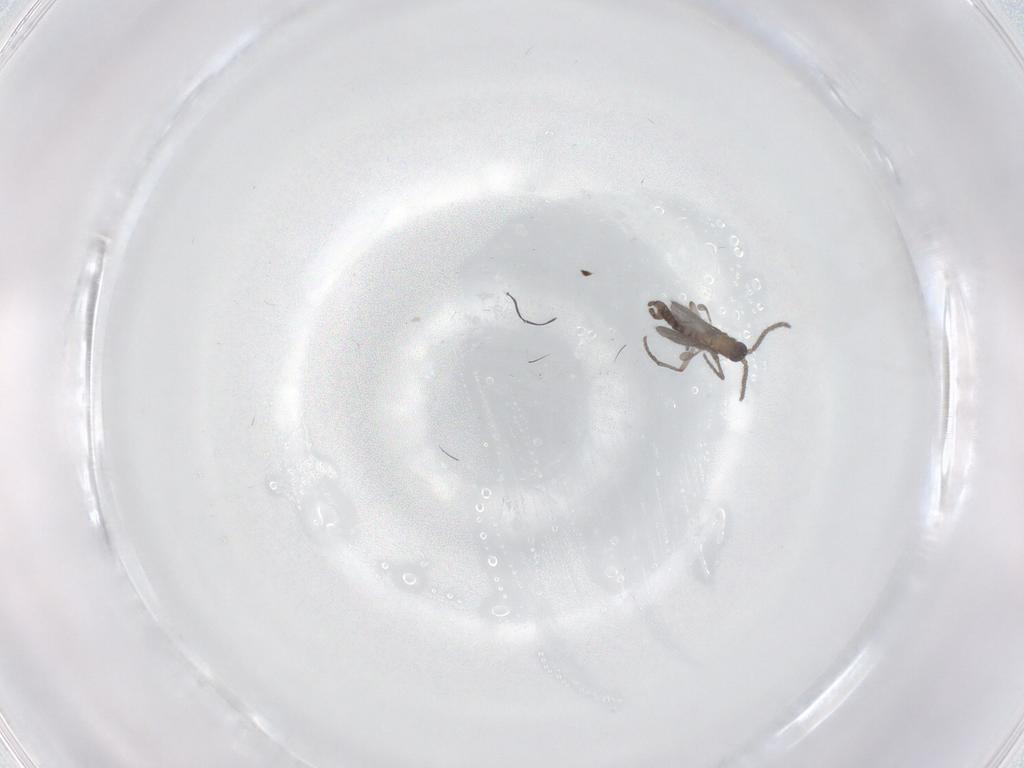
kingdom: Animalia
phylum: Arthropoda
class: Insecta
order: Diptera
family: Sciaridae
